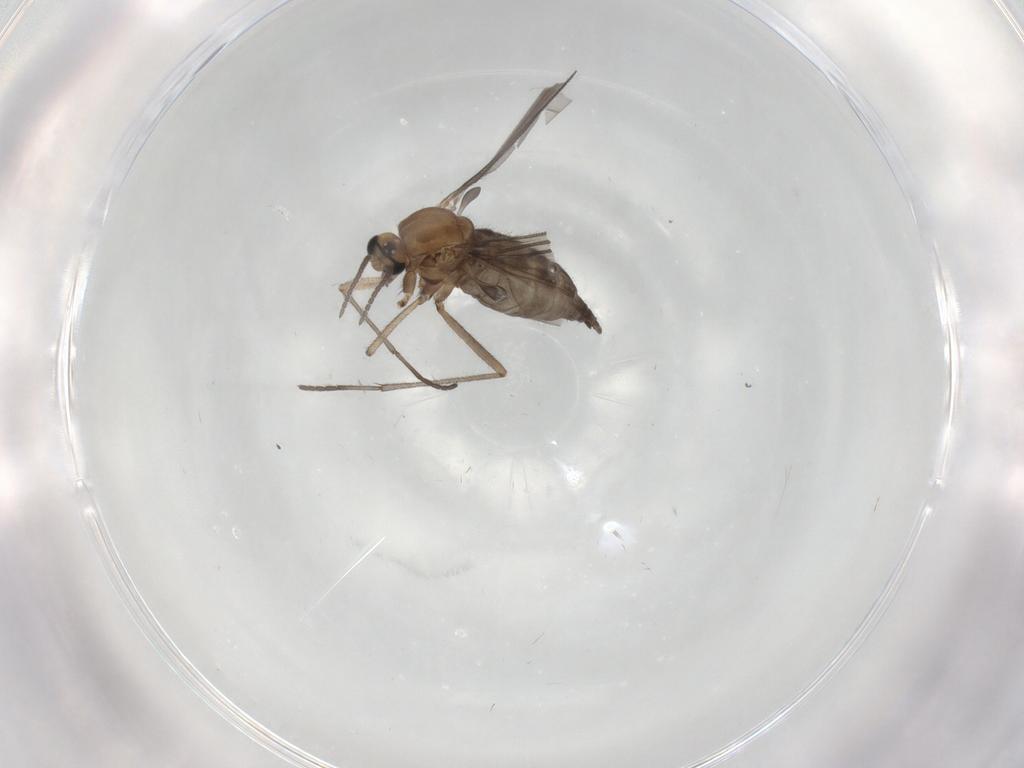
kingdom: Animalia
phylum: Arthropoda
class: Insecta
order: Diptera
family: Sciaridae
